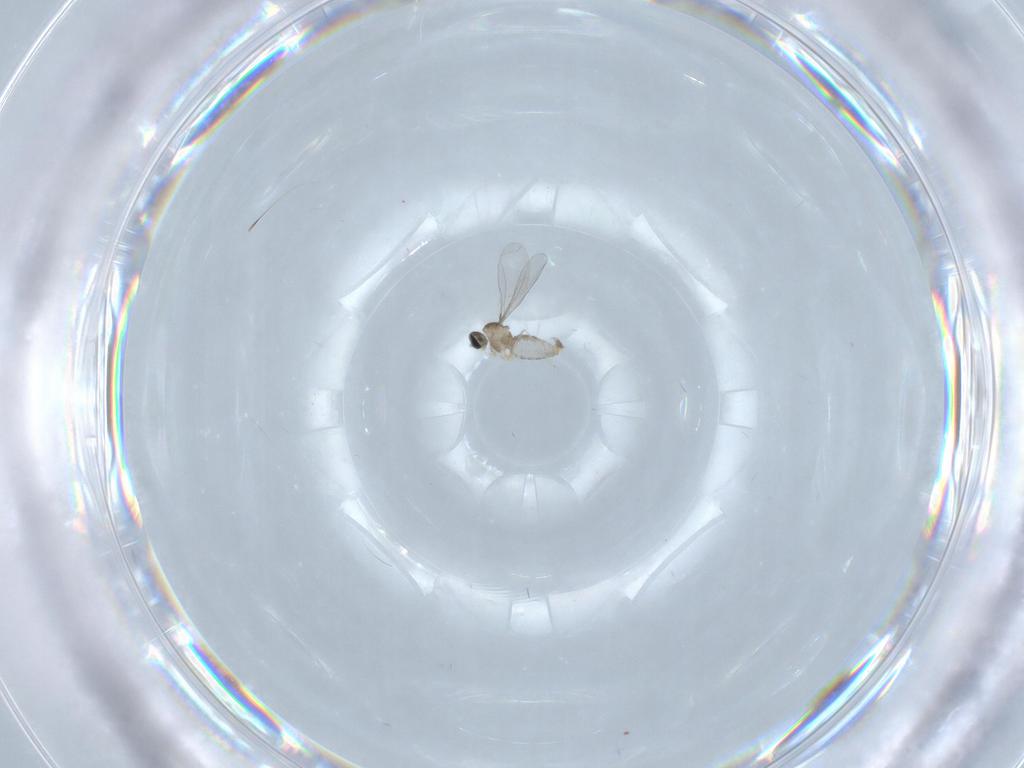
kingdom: Animalia
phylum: Arthropoda
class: Insecta
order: Diptera
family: Cecidomyiidae
